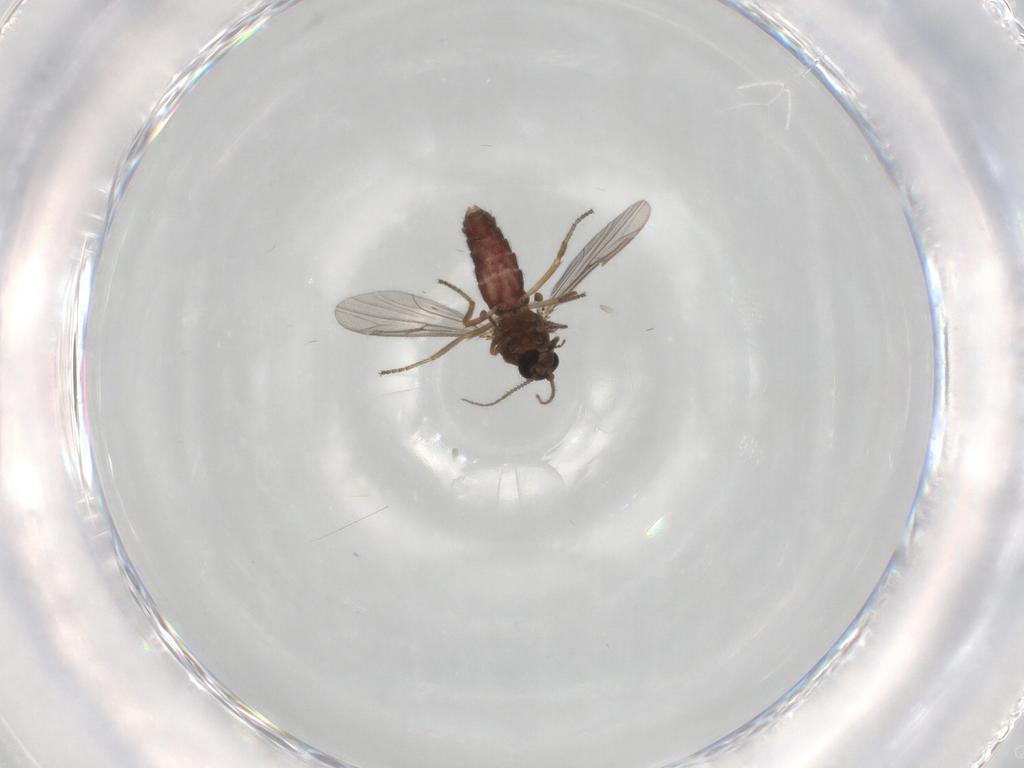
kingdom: Animalia
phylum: Arthropoda
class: Insecta
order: Diptera
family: Ceratopogonidae
